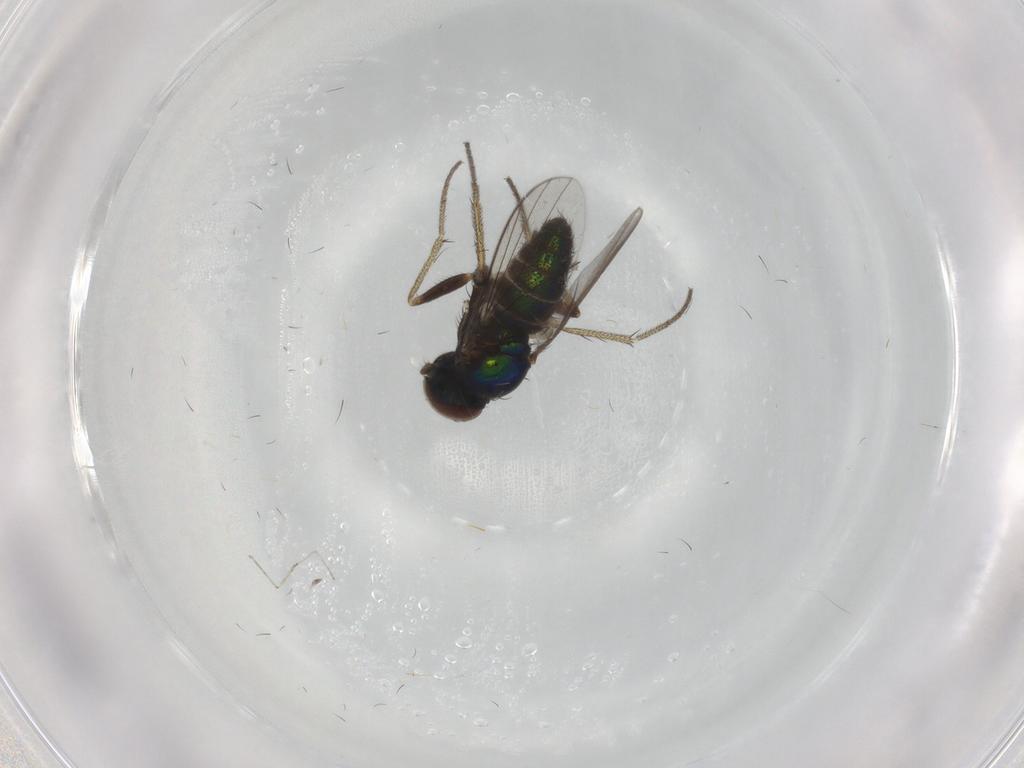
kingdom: Animalia
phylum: Arthropoda
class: Insecta
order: Diptera
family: Dolichopodidae
